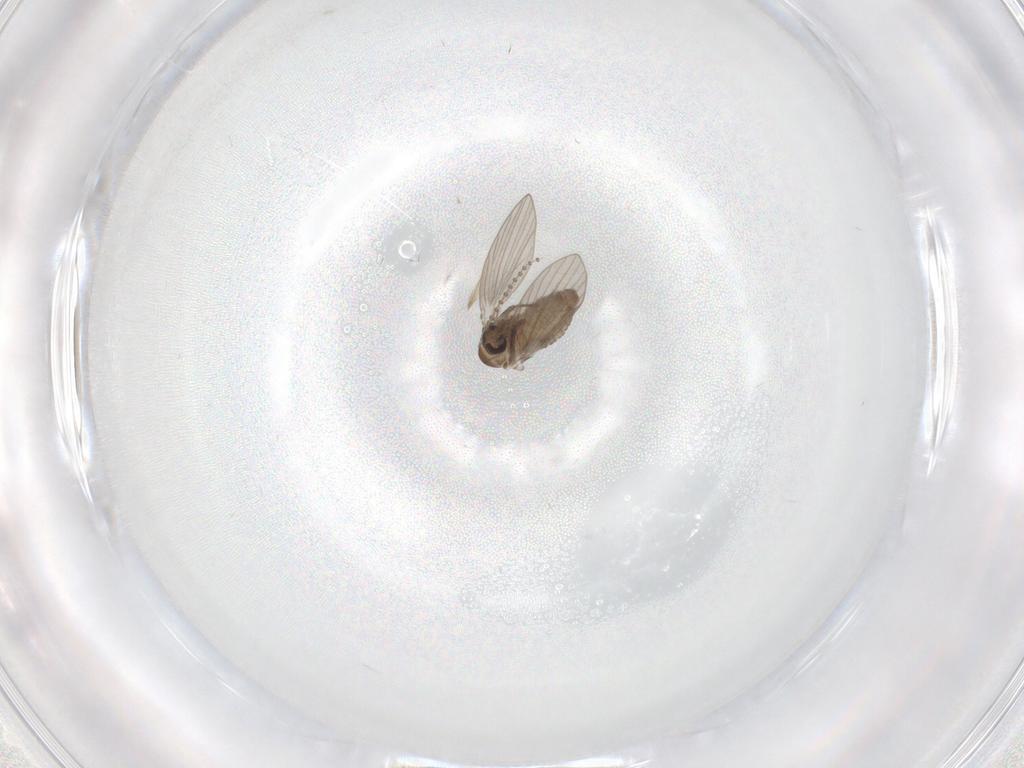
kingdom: Animalia
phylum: Arthropoda
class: Insecta
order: Diptera
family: Psychodidae
